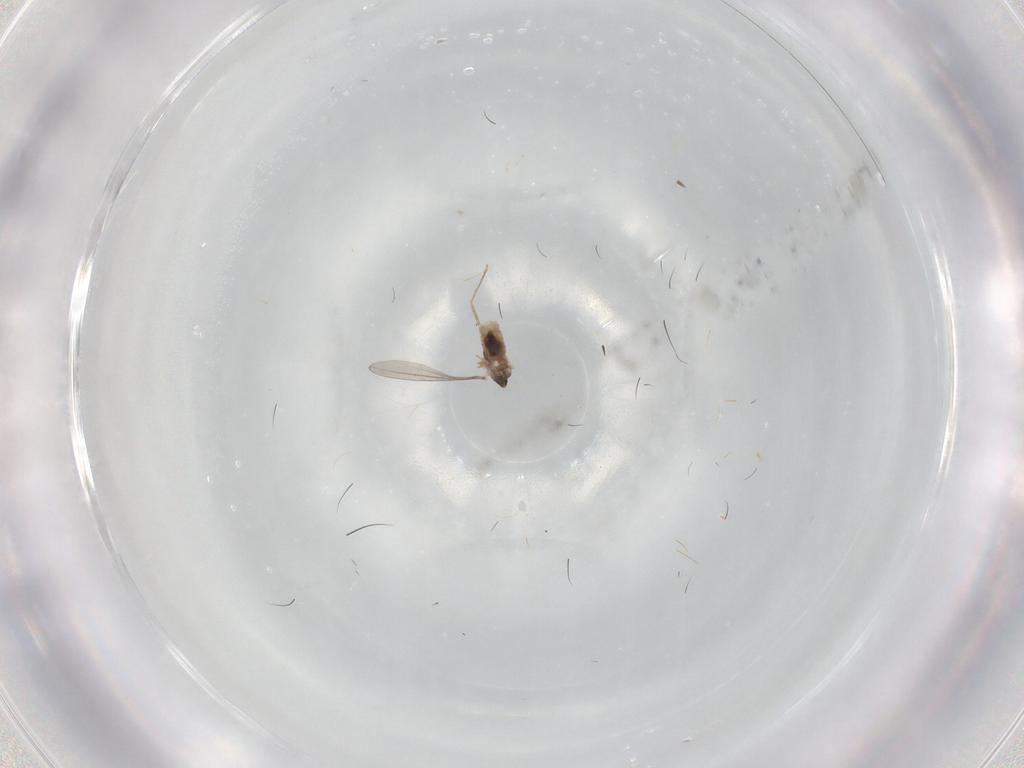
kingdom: Animalia
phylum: Arthropoda
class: Insecta
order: Diptera
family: Cecidomyiidae
